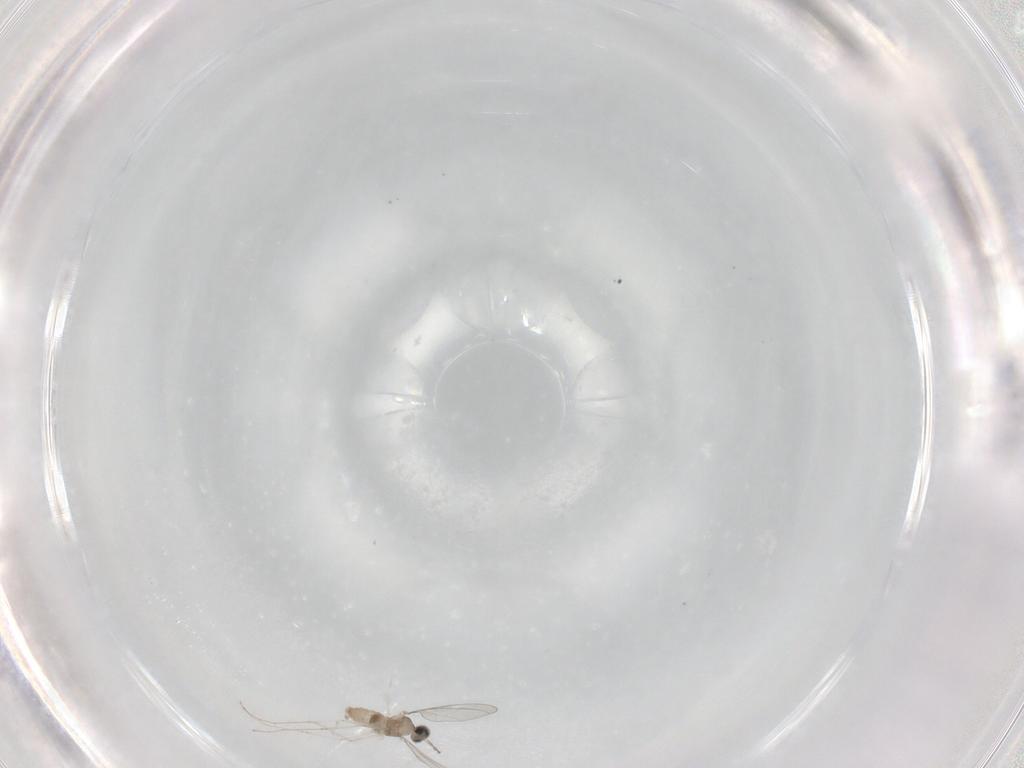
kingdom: Animalia
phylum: Arthropoda
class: Insecta
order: Diptera
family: Cecidomyiidae
